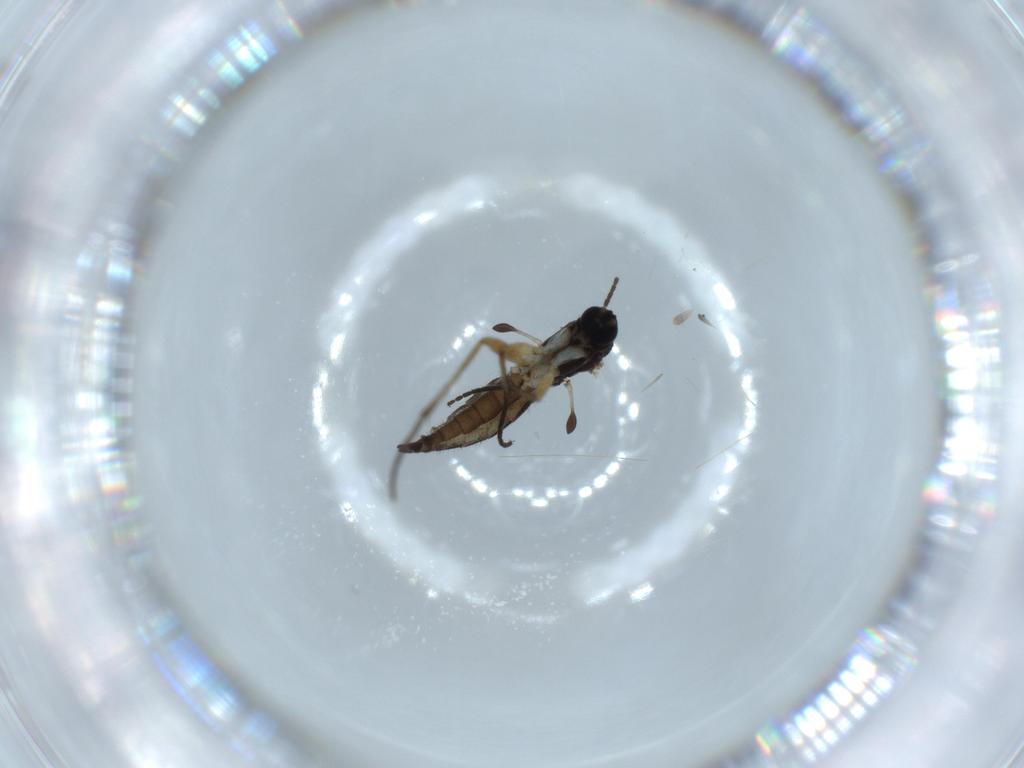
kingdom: Animalia
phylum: Arthropoda
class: Insecta
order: Diptera
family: Sciaridae
